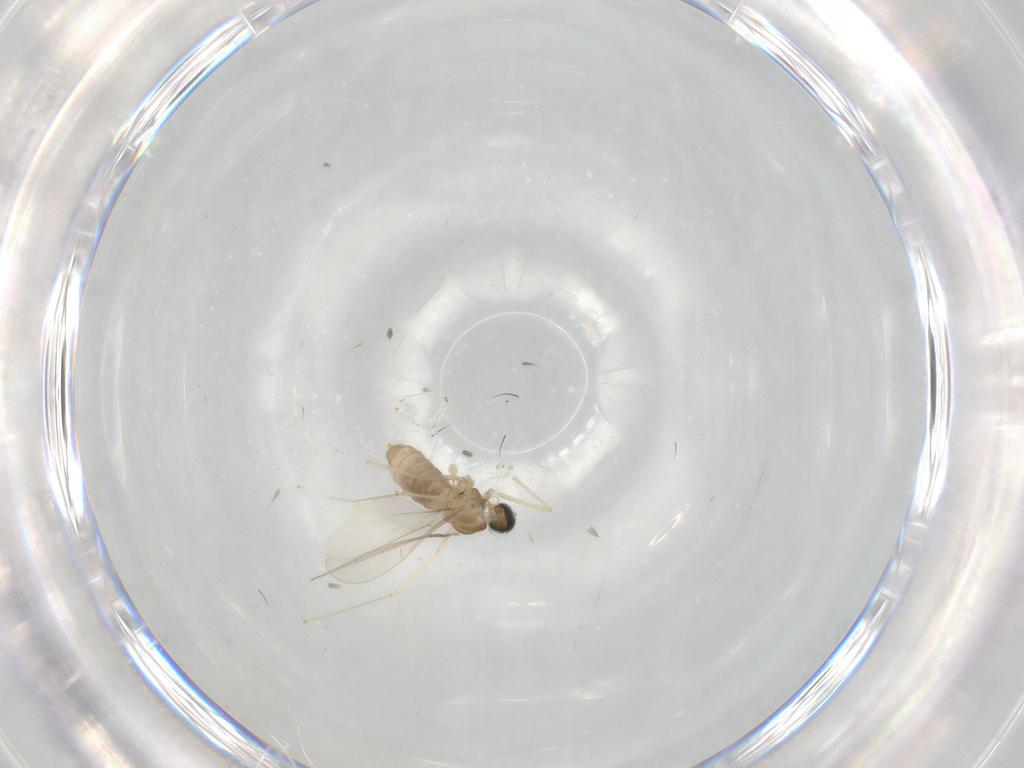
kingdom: Animalia
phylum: Arthropoda
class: Insecta
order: Diptera
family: Cecidomyiidae
